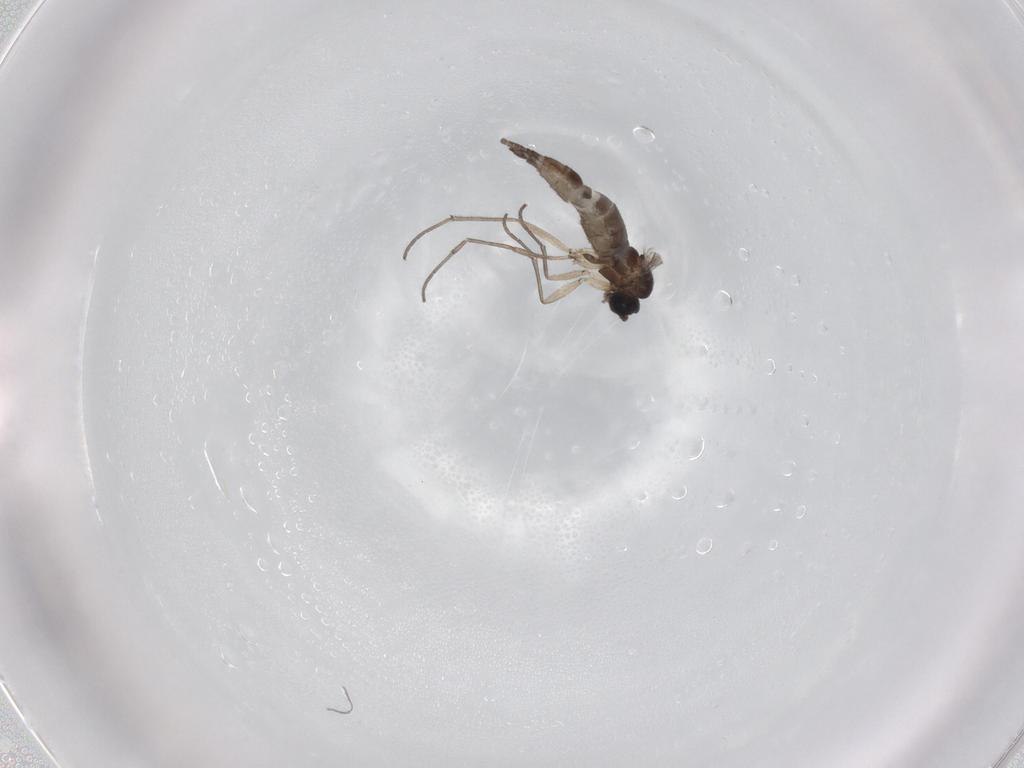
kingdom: Animalia
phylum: Arthropoda
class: Insecta
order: Diptera
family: Sciaridae
